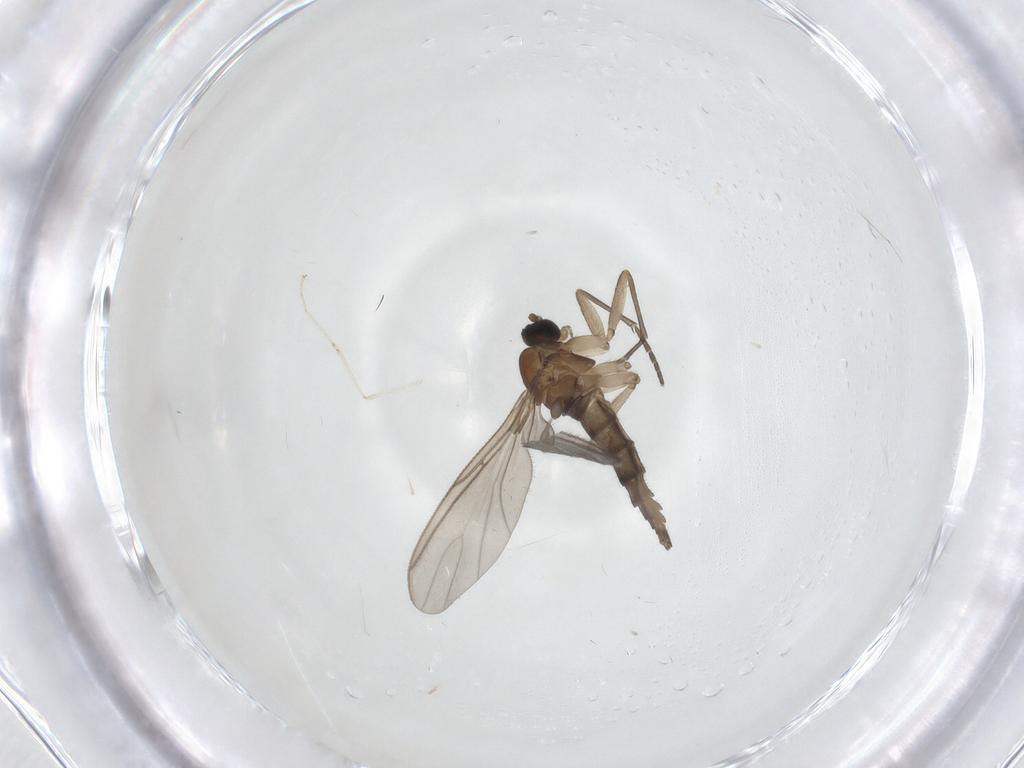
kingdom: Animalia
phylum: Arthropoda
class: Insecta
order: Diptera
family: Sciaridae
